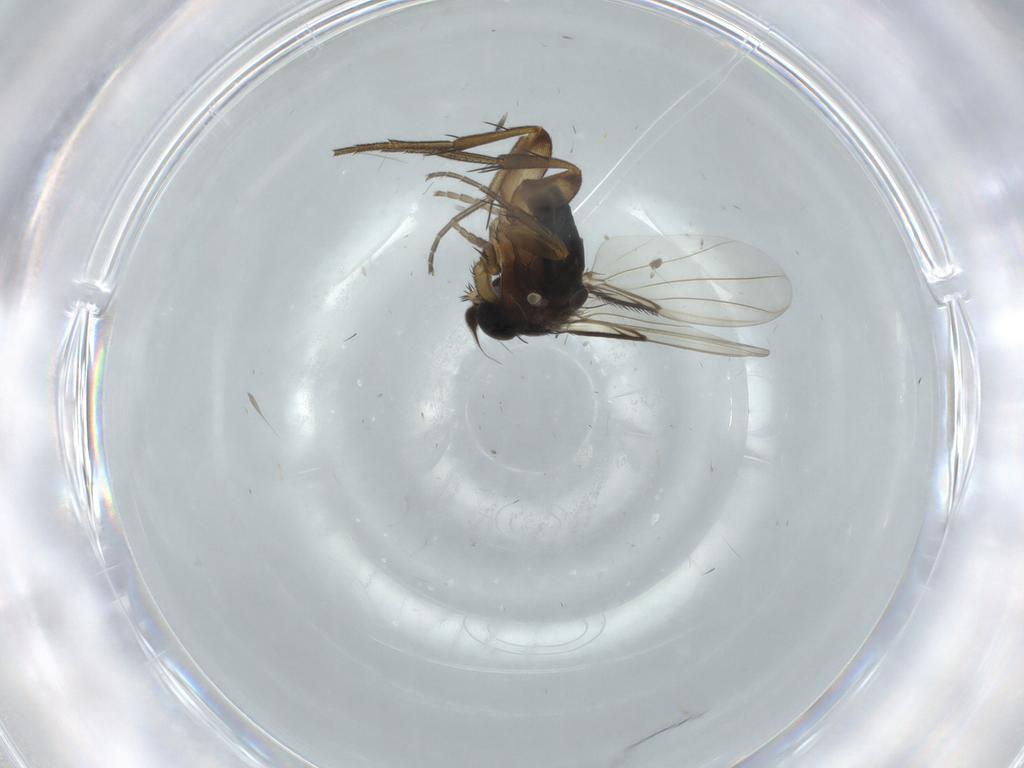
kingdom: Animalia
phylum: Arthropoda
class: Insecta
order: Diptera
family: Phoridae
